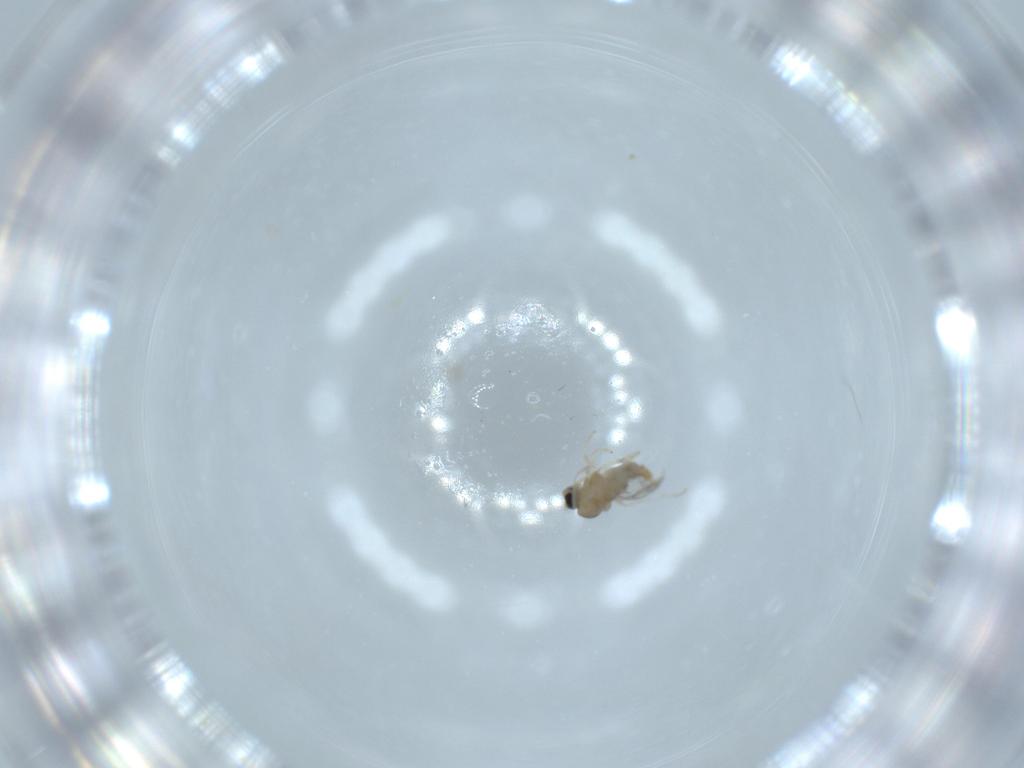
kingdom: Animalia
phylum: Arthropoda
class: Insecta
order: Diptera
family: Cecidomyiidae
